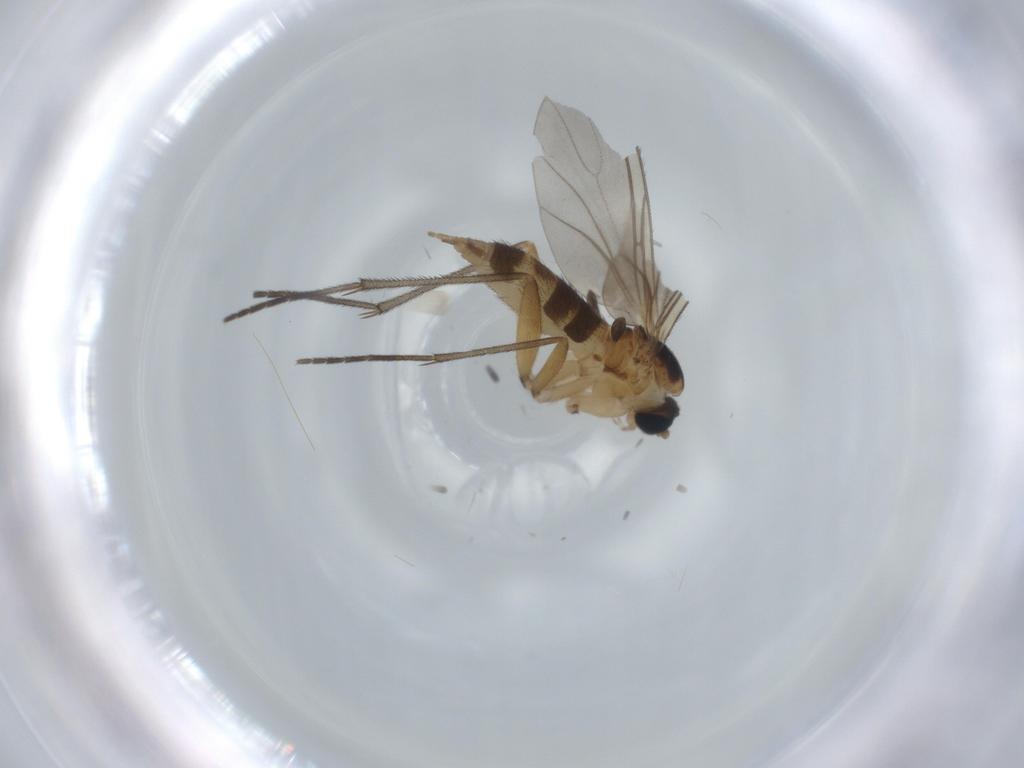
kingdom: Animalia
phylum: Arthropoda
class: Insecta
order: Diptera
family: Sciaridae
